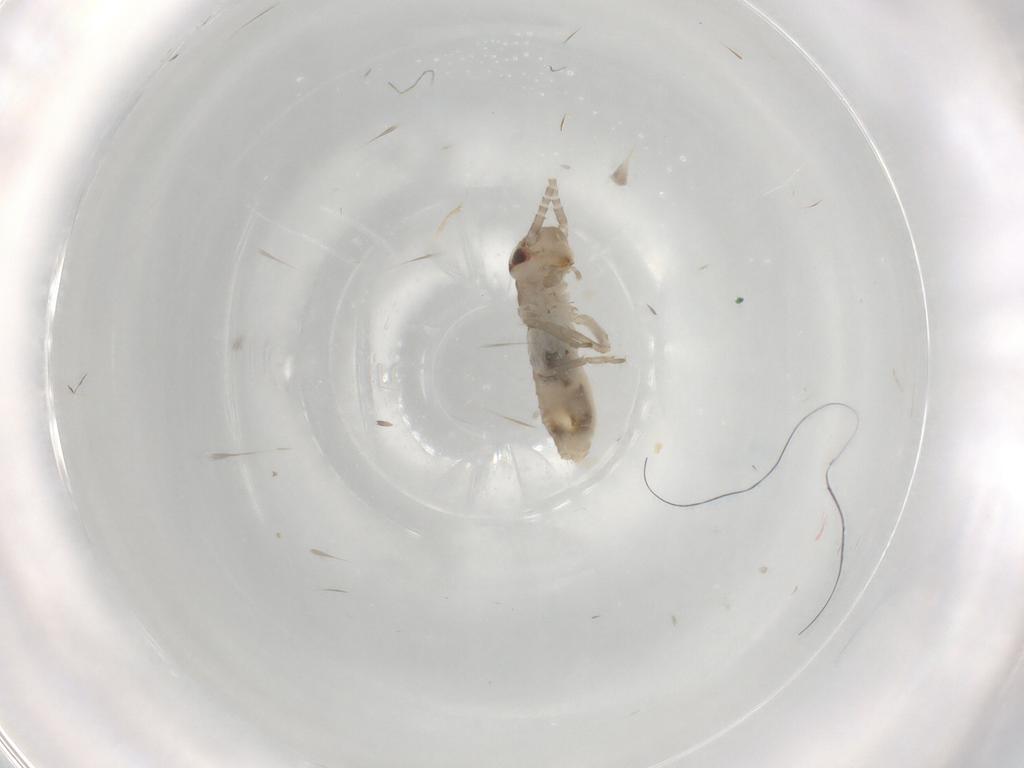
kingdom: Animalia
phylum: Arthropoda
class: Insecta
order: Orthoptera
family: Gryllidae
